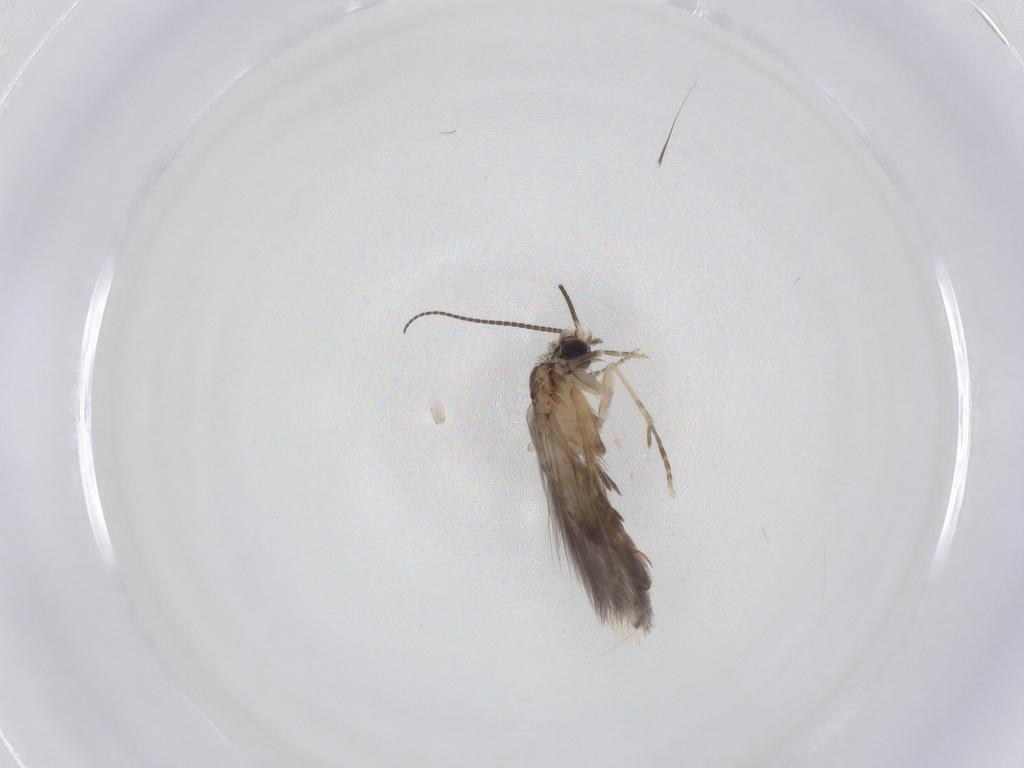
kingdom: Animalia
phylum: Arthropoda
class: Insecta
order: Trichoptera
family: Hydroptilidae
